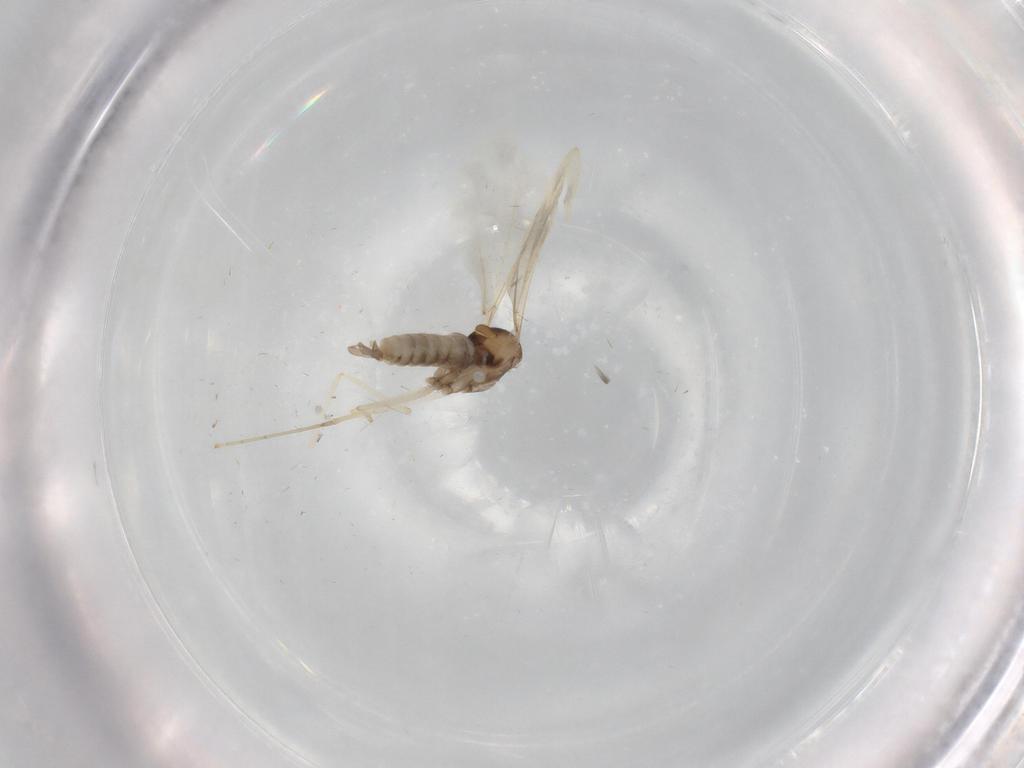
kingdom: Animalia
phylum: Arthropoda
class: Insecta
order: Diptera
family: Cecidomyiidae
